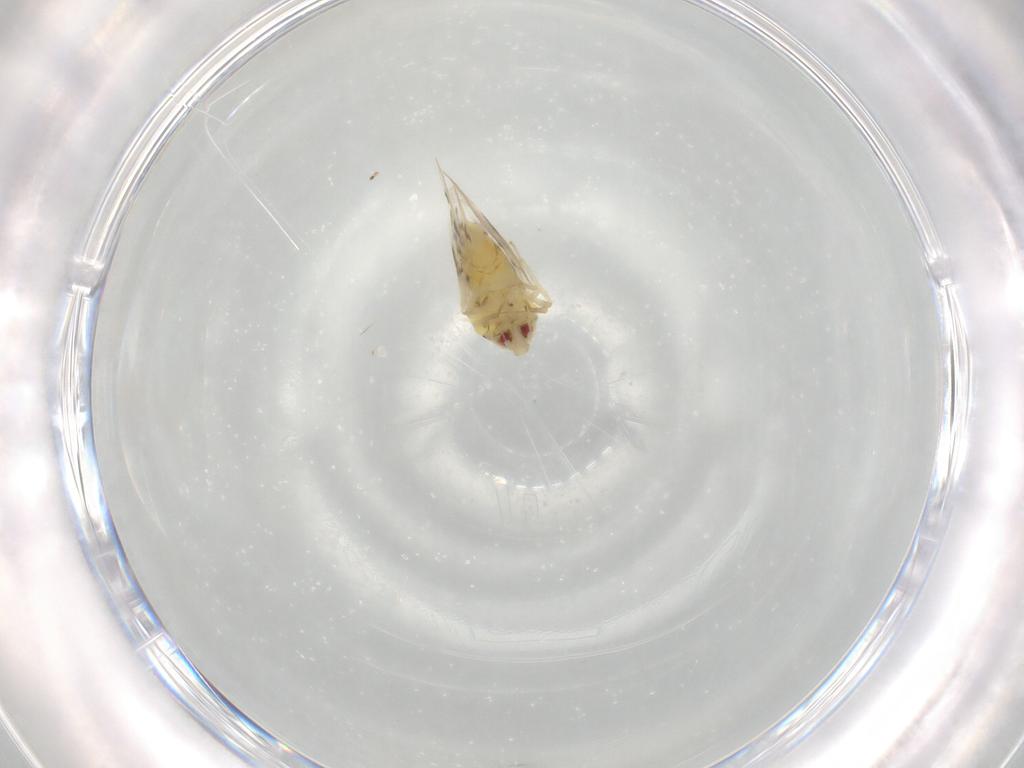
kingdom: Animalia
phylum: Arthropoda
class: Insecta
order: Hemiptera
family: Aleyrodidae
